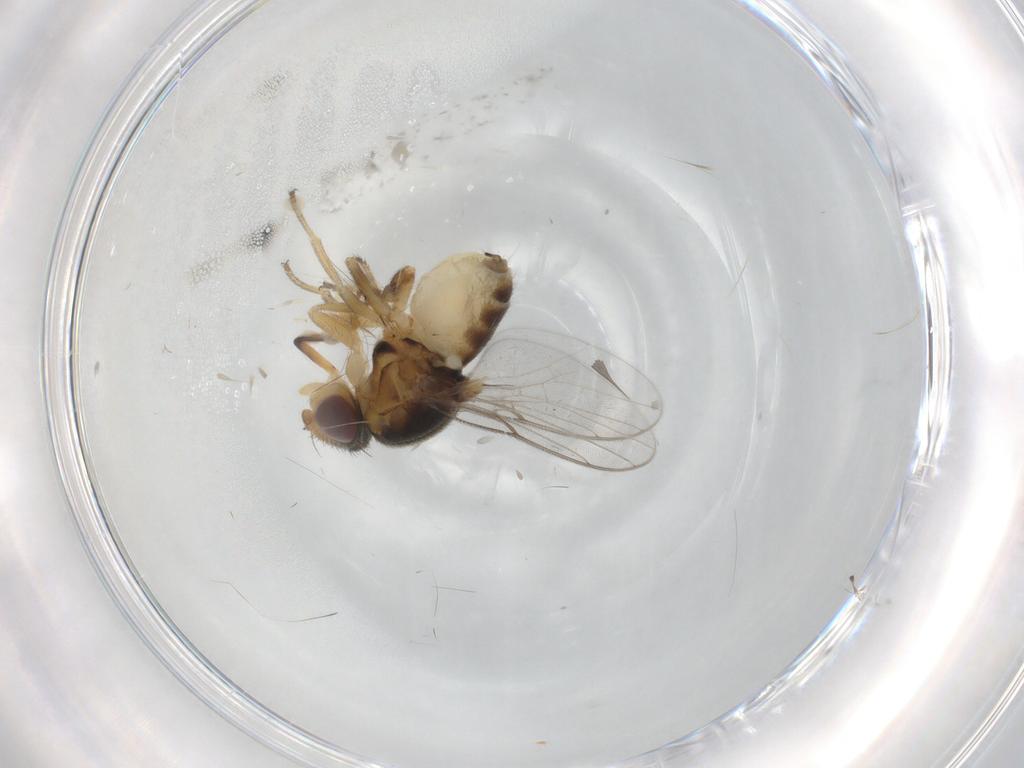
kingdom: Animalia
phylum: Arthropoda
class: Insecta
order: Diptera
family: Chloropidae
